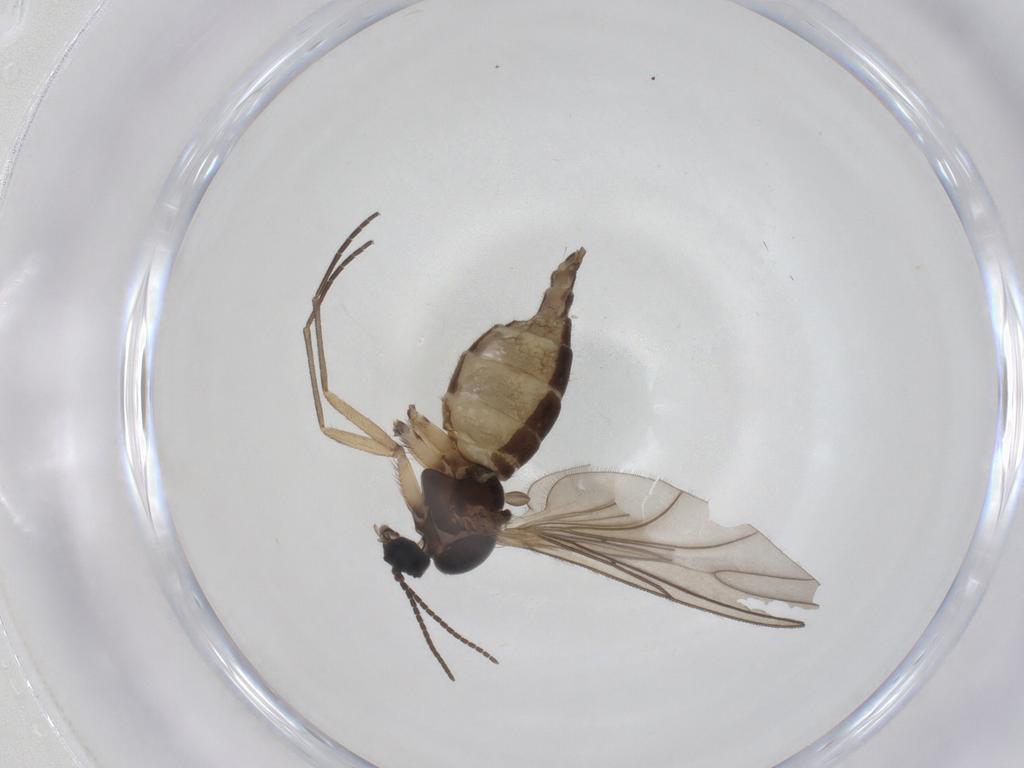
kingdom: Animalia
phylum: Arthropoda
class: Insecta
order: Diptera
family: Sciaridae
